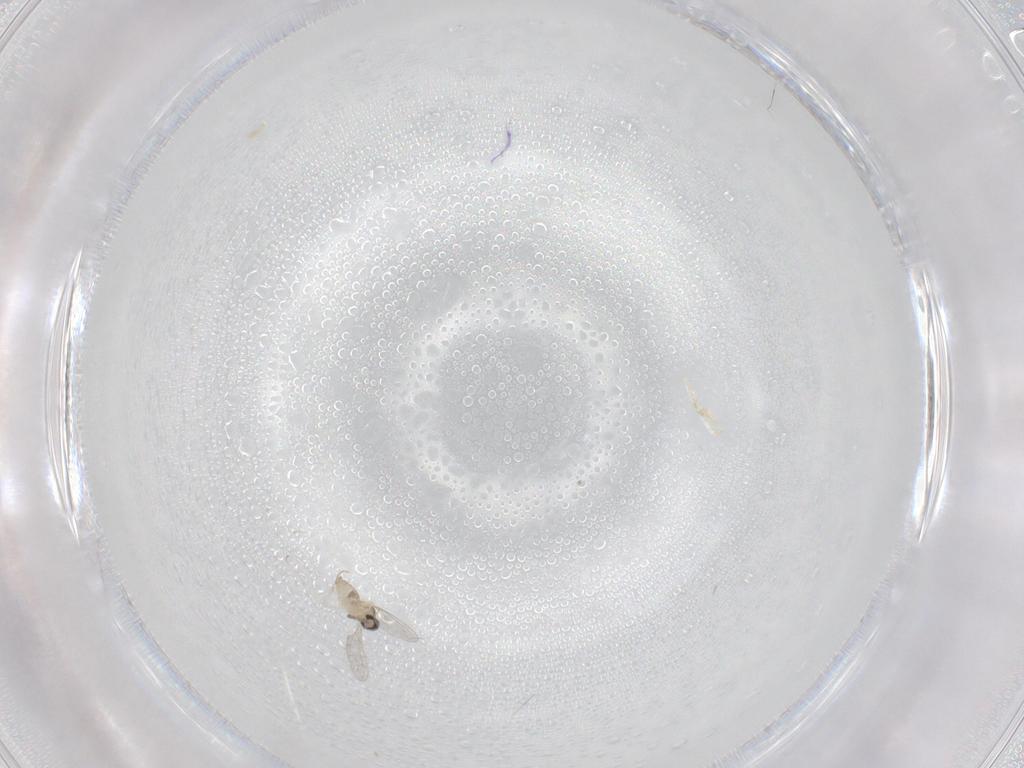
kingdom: Animalia
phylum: Arthropoda
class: Insecta
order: Diptera
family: Cecidomyiidae
